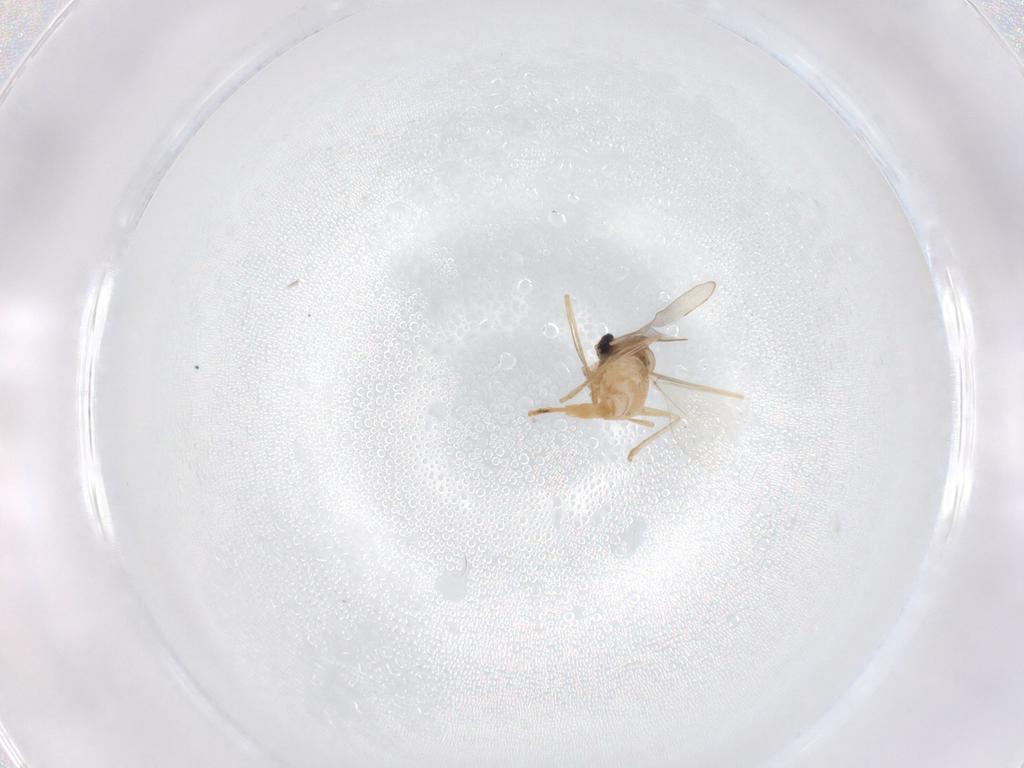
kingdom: Animalia
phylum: Arthropoda
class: Insecta
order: Diptera
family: Cecidomyiidae
